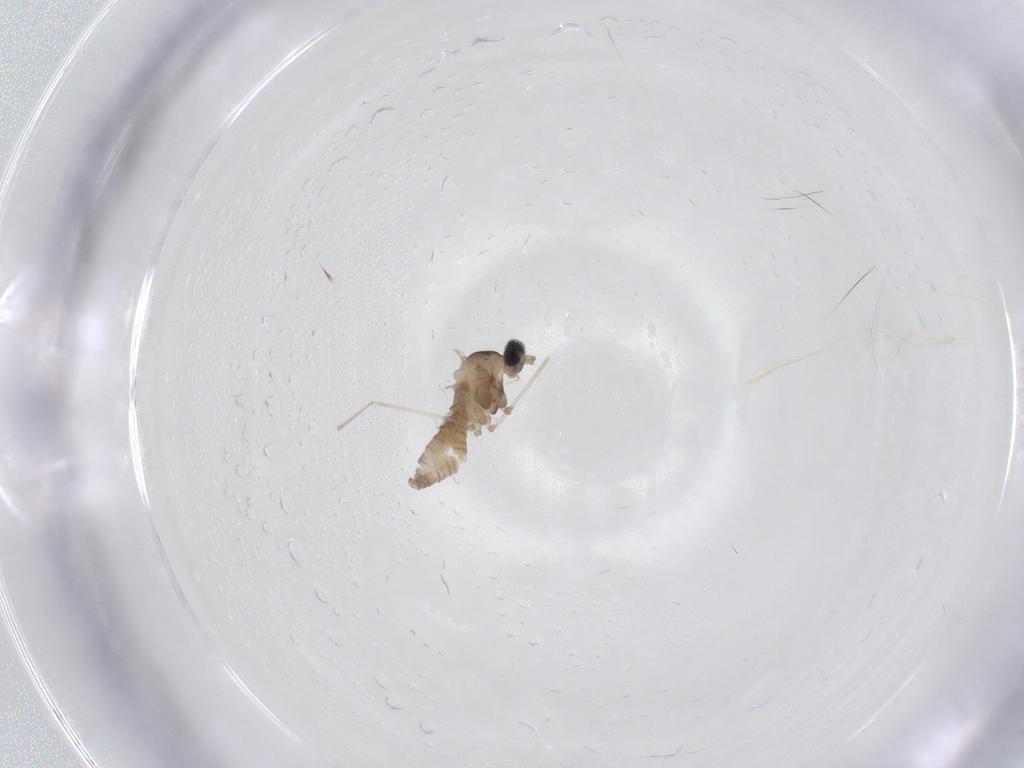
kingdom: Animalia
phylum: Arthropoda
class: Insecta
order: Diptera
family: Cecidomyiidae
